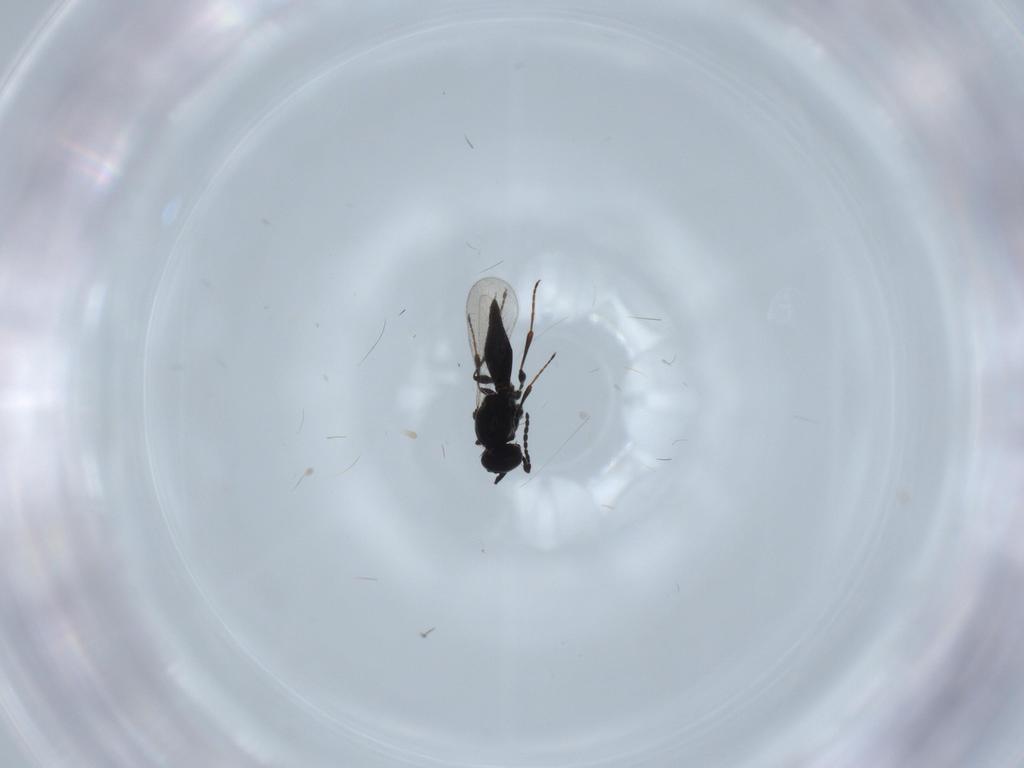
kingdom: Animalia
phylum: Arthropoda
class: Insecta
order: Hymenoptera
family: Platygastridae
